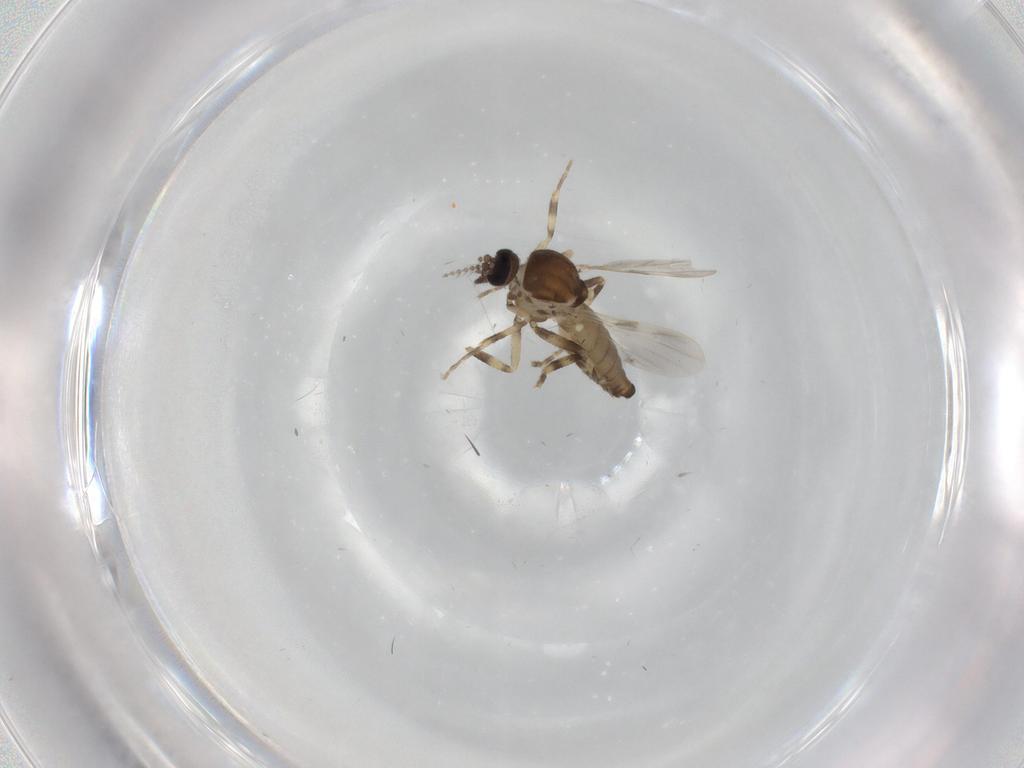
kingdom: Animalia
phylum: Arthropoda
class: Insecta
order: Diptera
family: Ceratopogonidae
